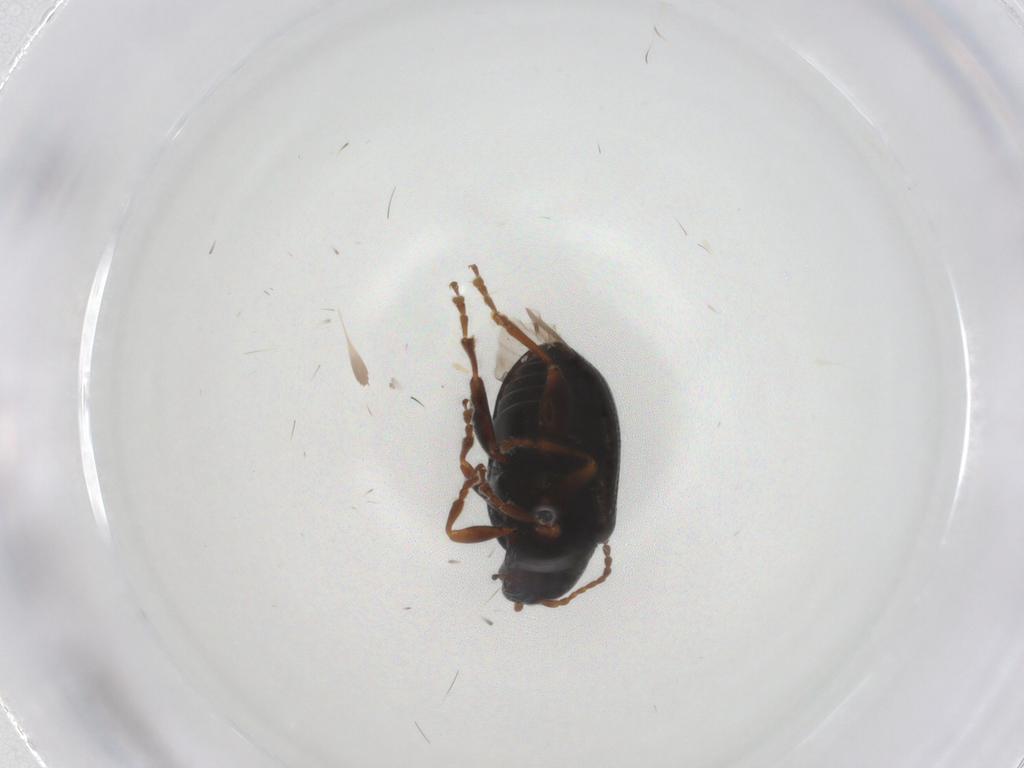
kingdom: Animalia
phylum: Arthropoda
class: Insecta
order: Coleoptera
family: Chrysomelidae
